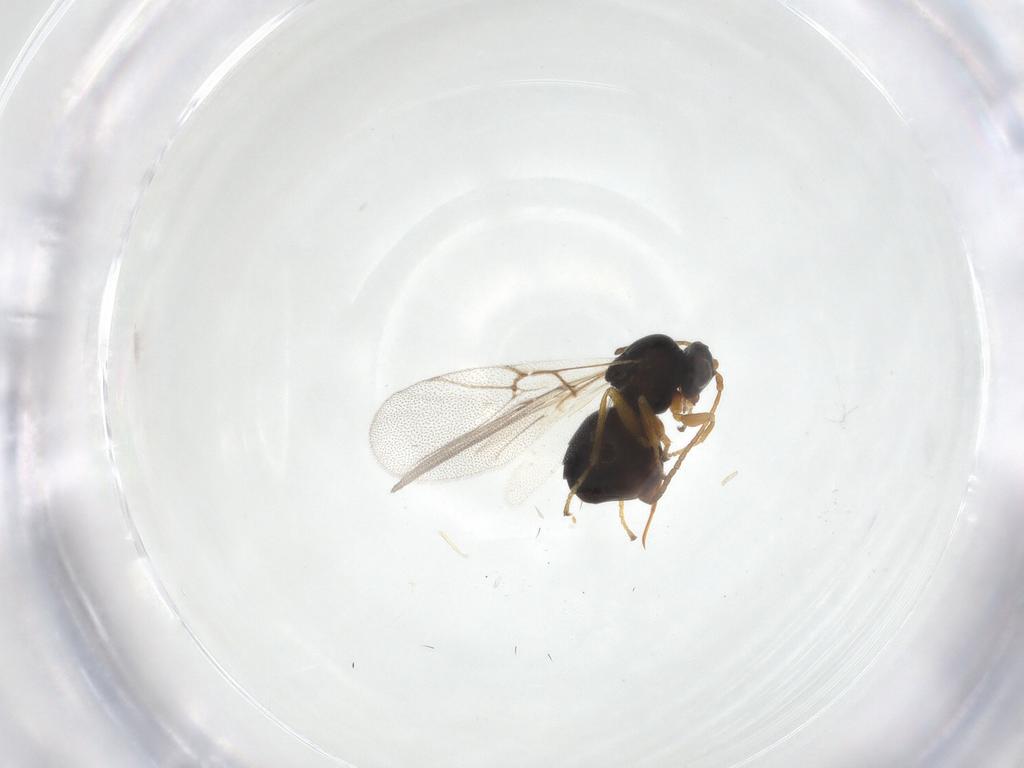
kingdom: Animalia
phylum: Arthropoda
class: Insecta
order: Hymenoptera
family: Cynipidae
